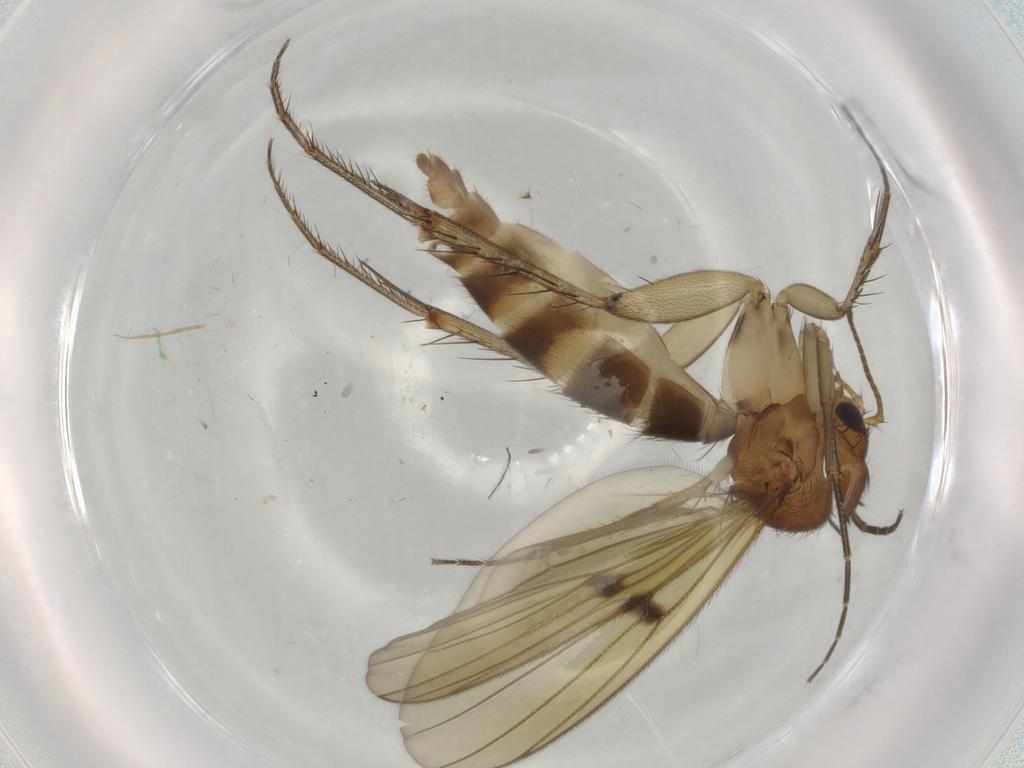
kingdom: Animalia
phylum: Arthropoda
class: Insecta
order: Diptera
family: Mycetophilidae
